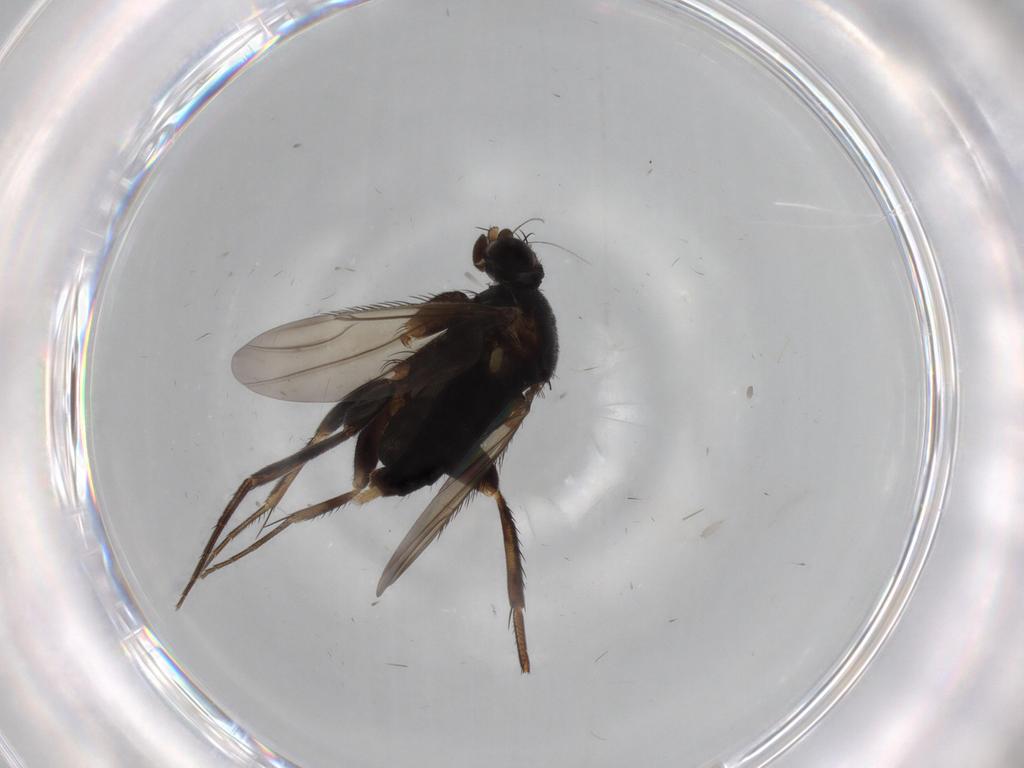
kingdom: Animalia
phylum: Arthropoda
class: Insecta
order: Diptera
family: Phoridae
